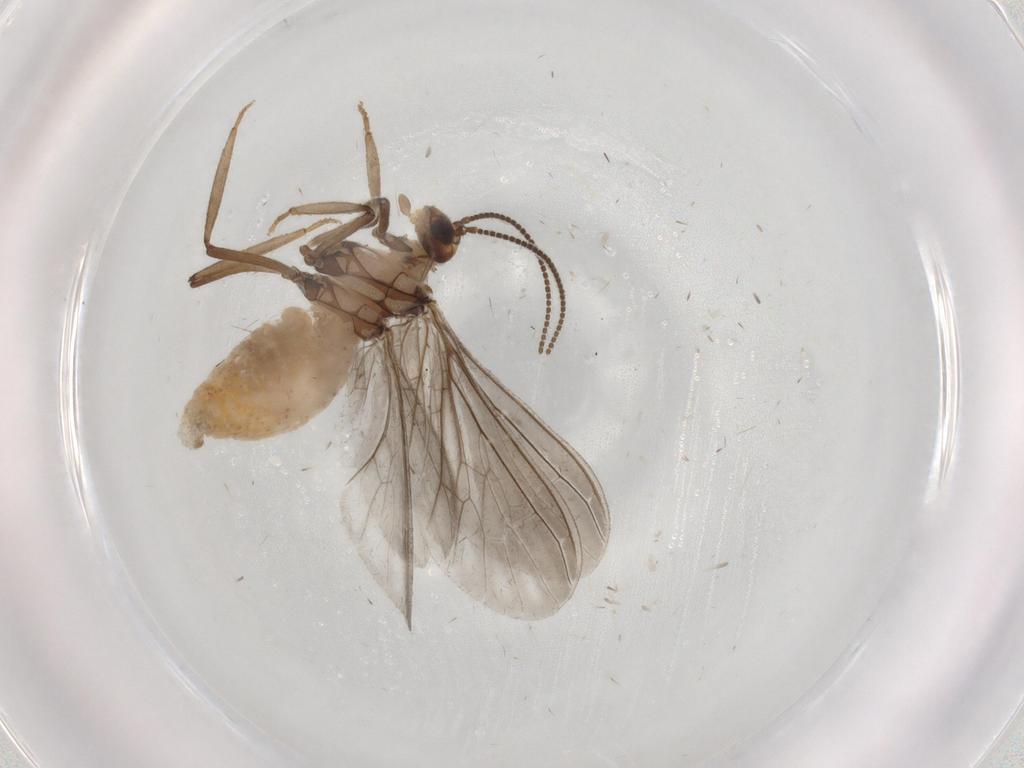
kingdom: Animalia
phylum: Arthropoda
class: Insecta
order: Neuroptera
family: Coniopterygidae
